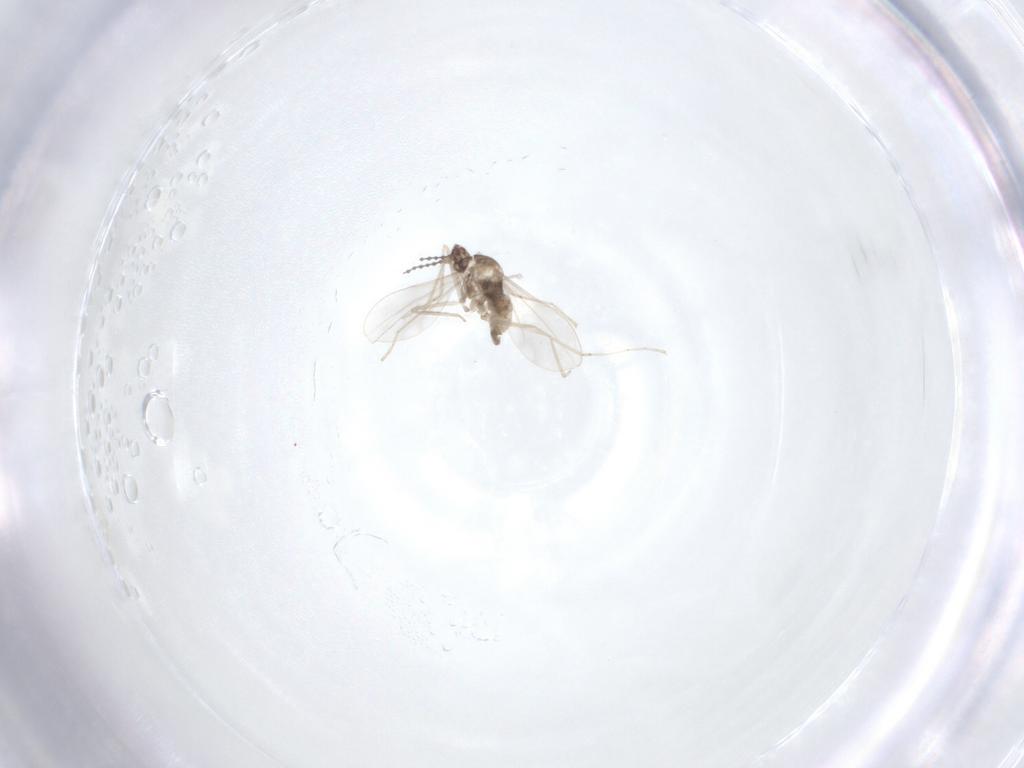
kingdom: Animalia
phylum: Arthropoda
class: Insecta
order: Diptera
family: Cecidomyiidae
